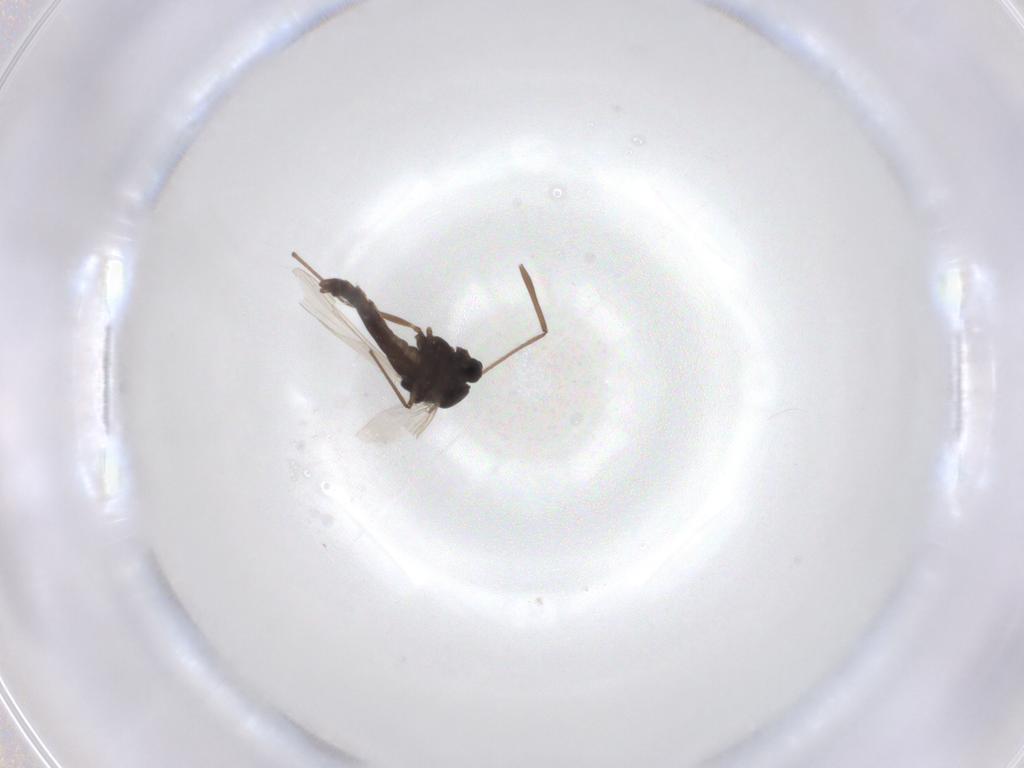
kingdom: Animalia
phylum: Arthropoda
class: Insecta
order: Diptera
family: Chironomidae
